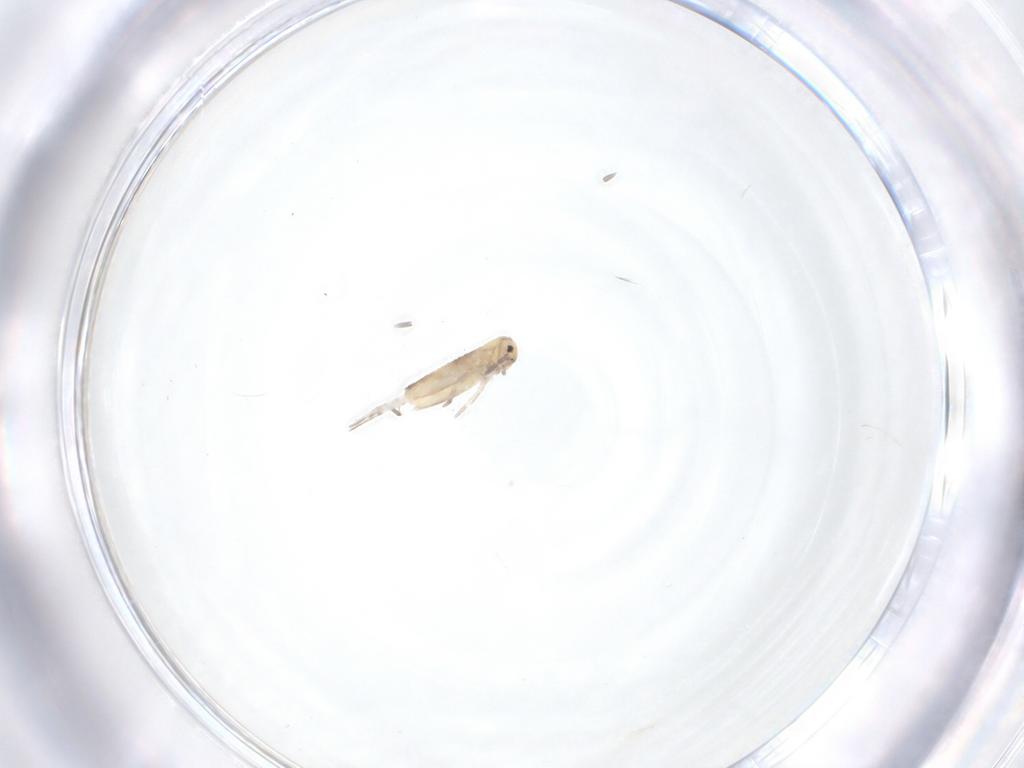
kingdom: Animalia
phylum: Arthropoda
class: Collembola
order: Entomobryomorpha
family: Entomobryidae
